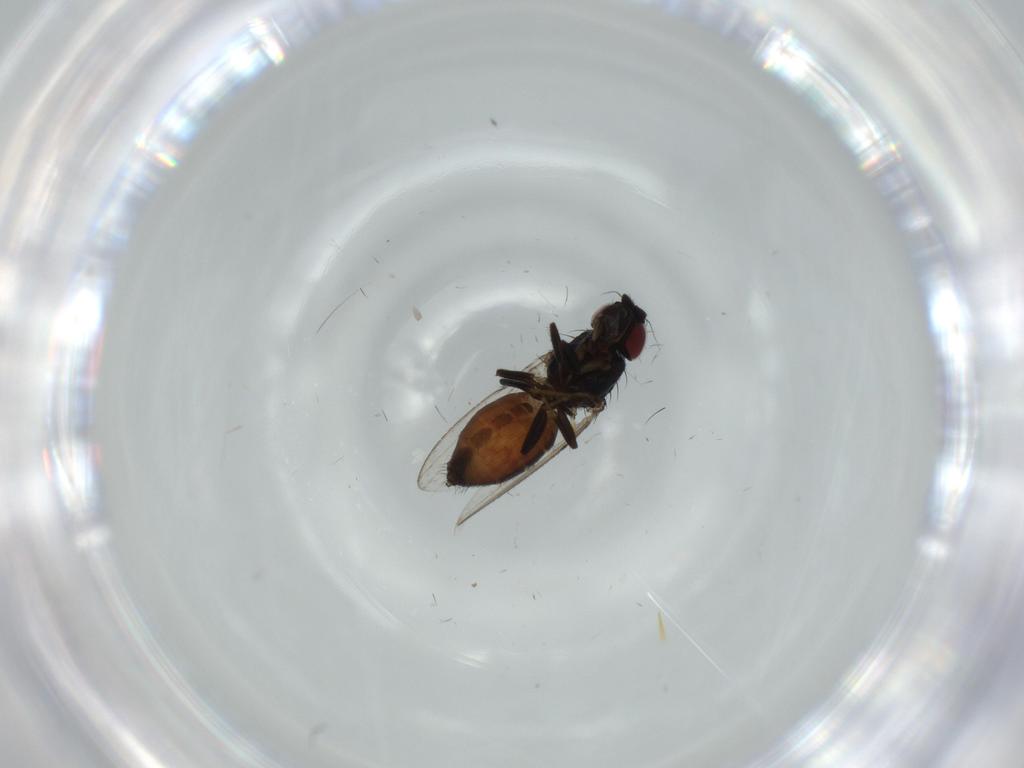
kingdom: Animalia
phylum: Arthropoda
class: Insecta
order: Diptera
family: Milichiidae
